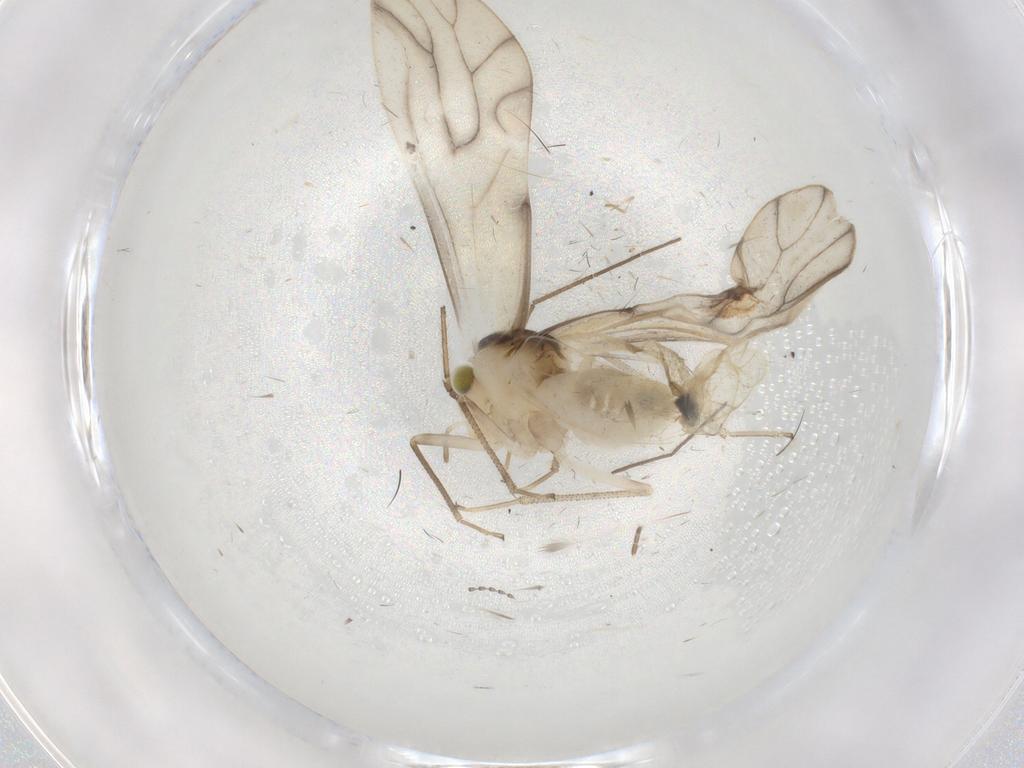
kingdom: Animalia
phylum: Arthropoda
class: Insecta
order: Psocodea
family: Caeciliusidae
